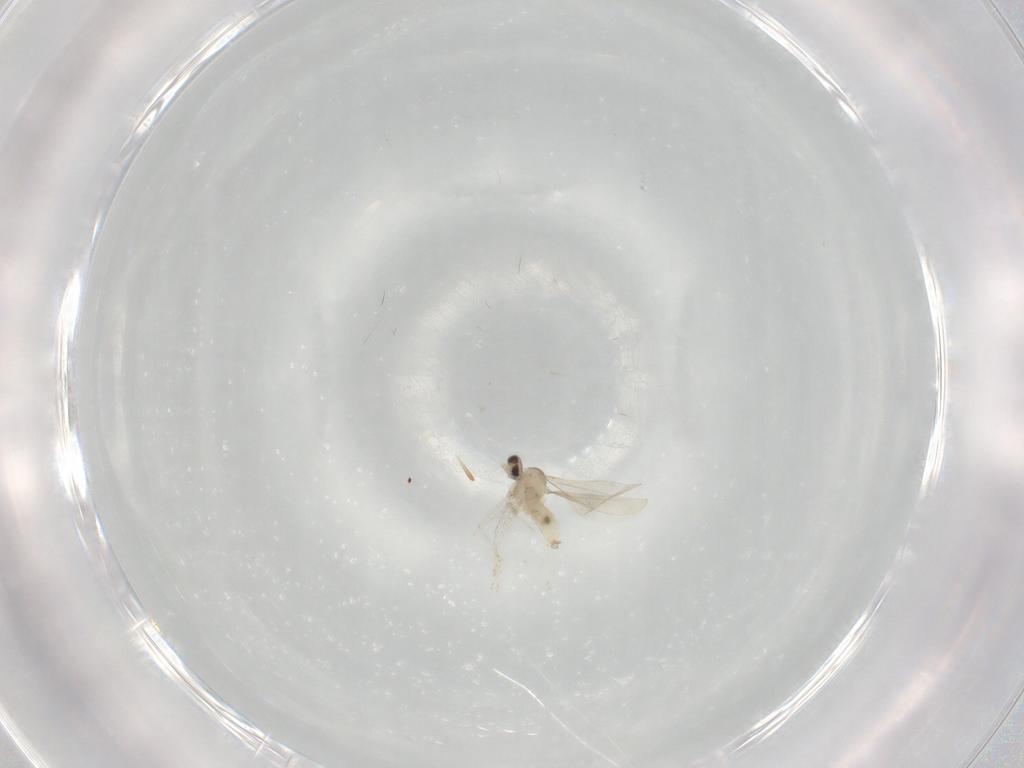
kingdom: Animalia
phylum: Arthropoda
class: Insecta
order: Diptera
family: Cecidomyiidae
